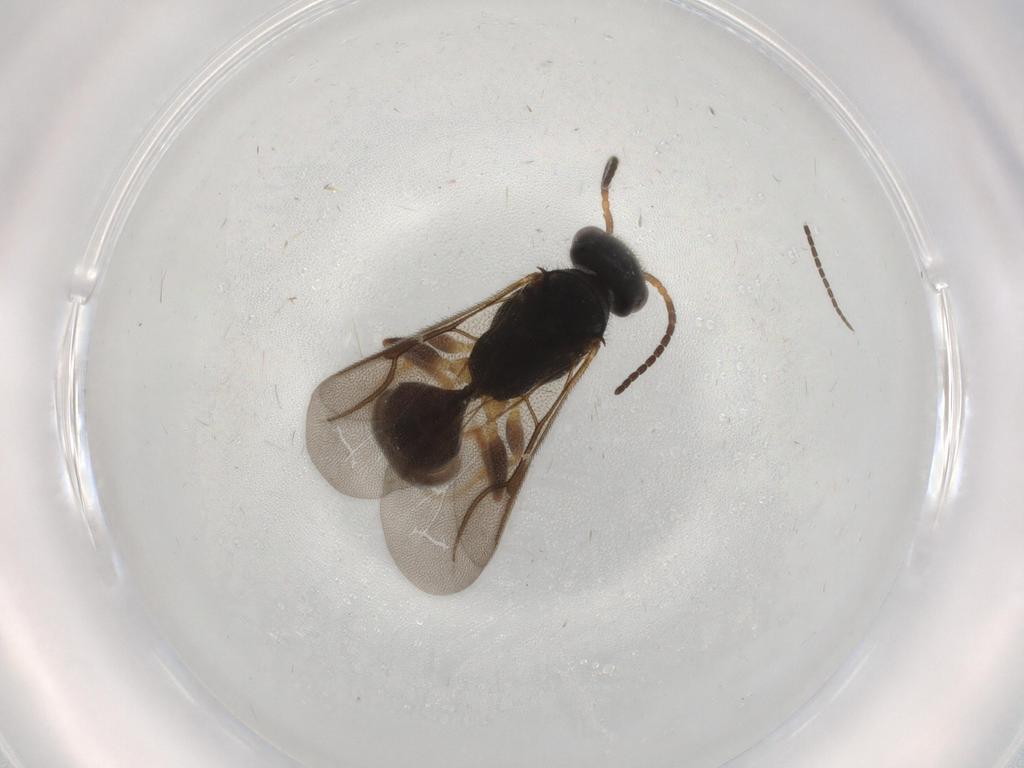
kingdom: Animalia
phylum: Arthropoda
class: Insecta
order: Hymenoptera
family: Bethylidae
